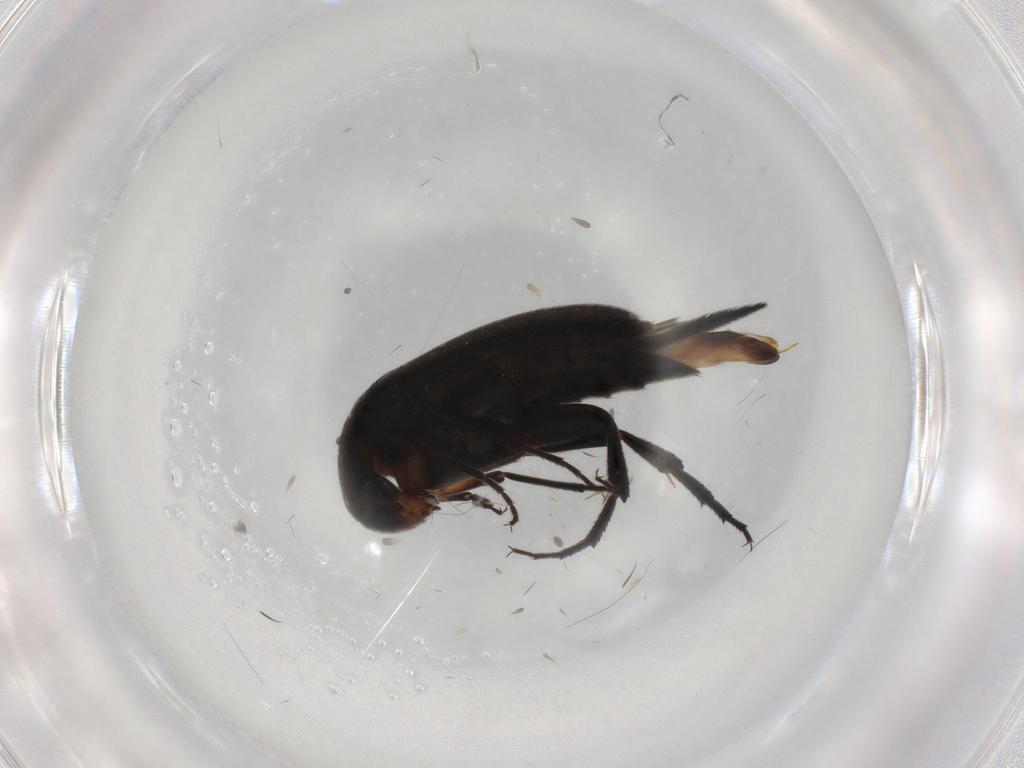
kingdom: Animalia
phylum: Arthropoda
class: Insecta
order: Coleoptera
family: Mordellidae
